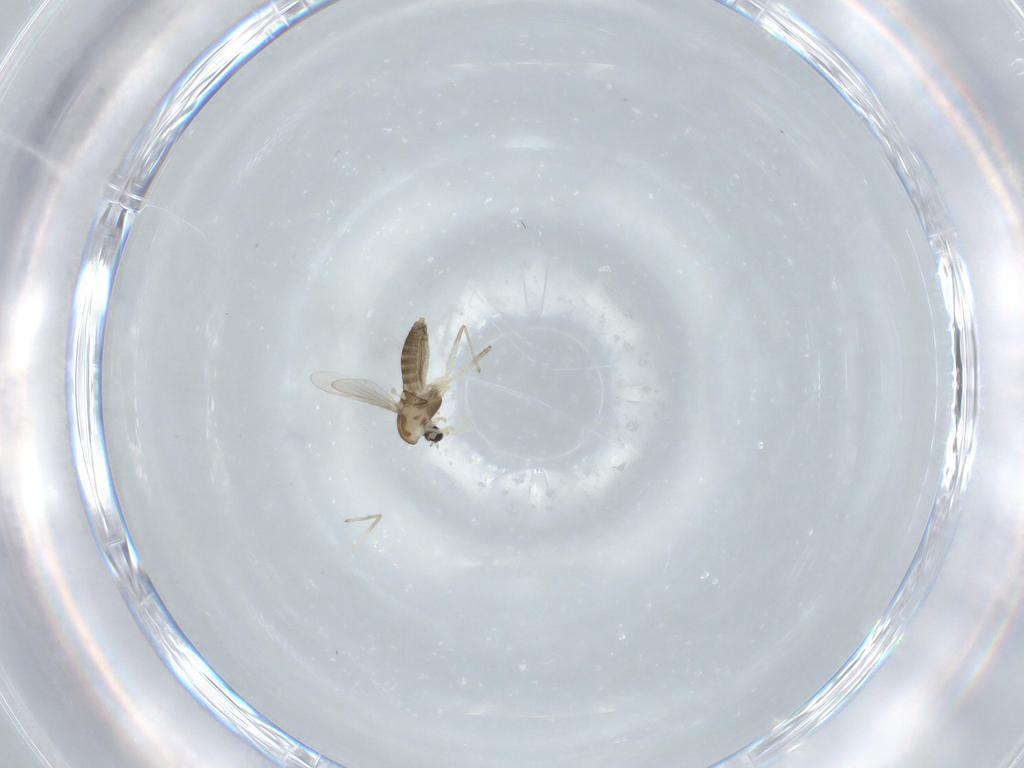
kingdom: Animalia
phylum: Arthropoda
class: Insecta
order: Diptera
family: Chironomidae
